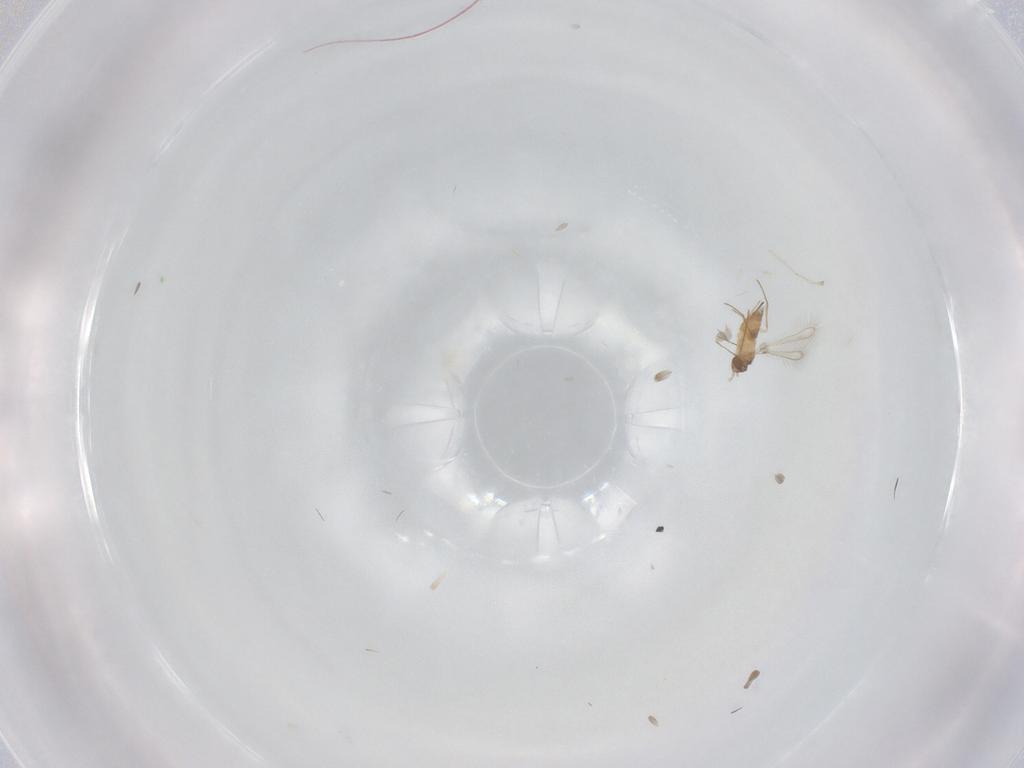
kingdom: Animalia
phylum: Arthropoda
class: Insecta
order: Hymenoptera
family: Mymaridae
